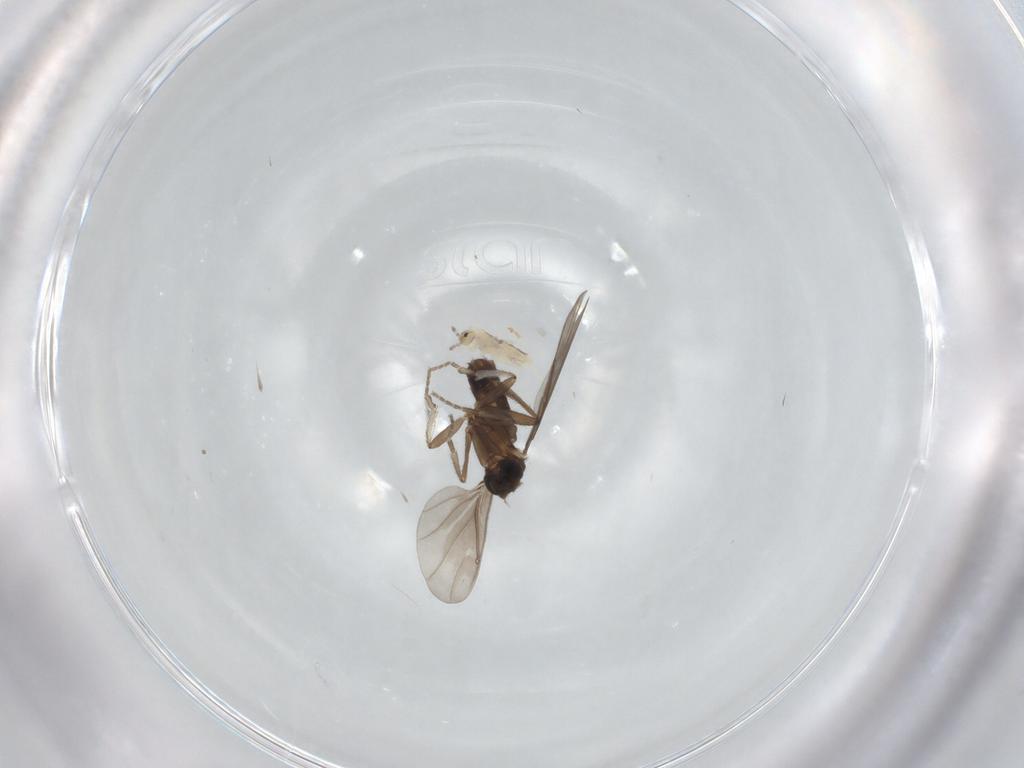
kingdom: Animalia
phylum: Arthropoda
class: Insecta
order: Diptera
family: Phoridae
